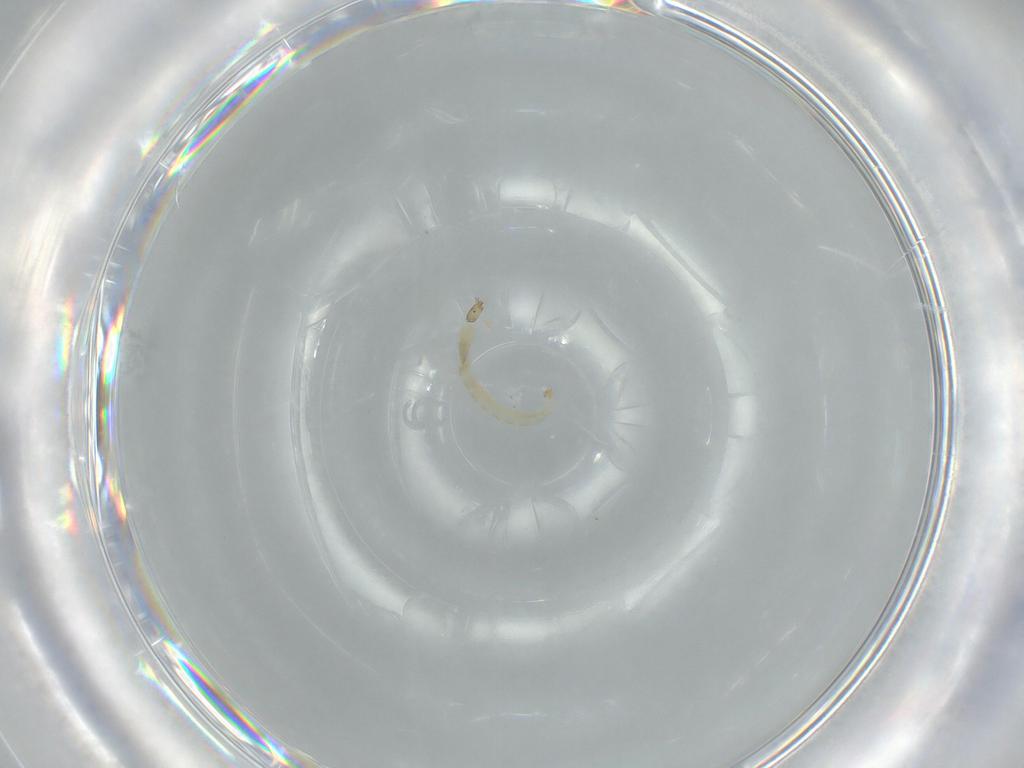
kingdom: Animalia
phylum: Arthropoda
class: Insecta
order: Diptera
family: Chironomidae
